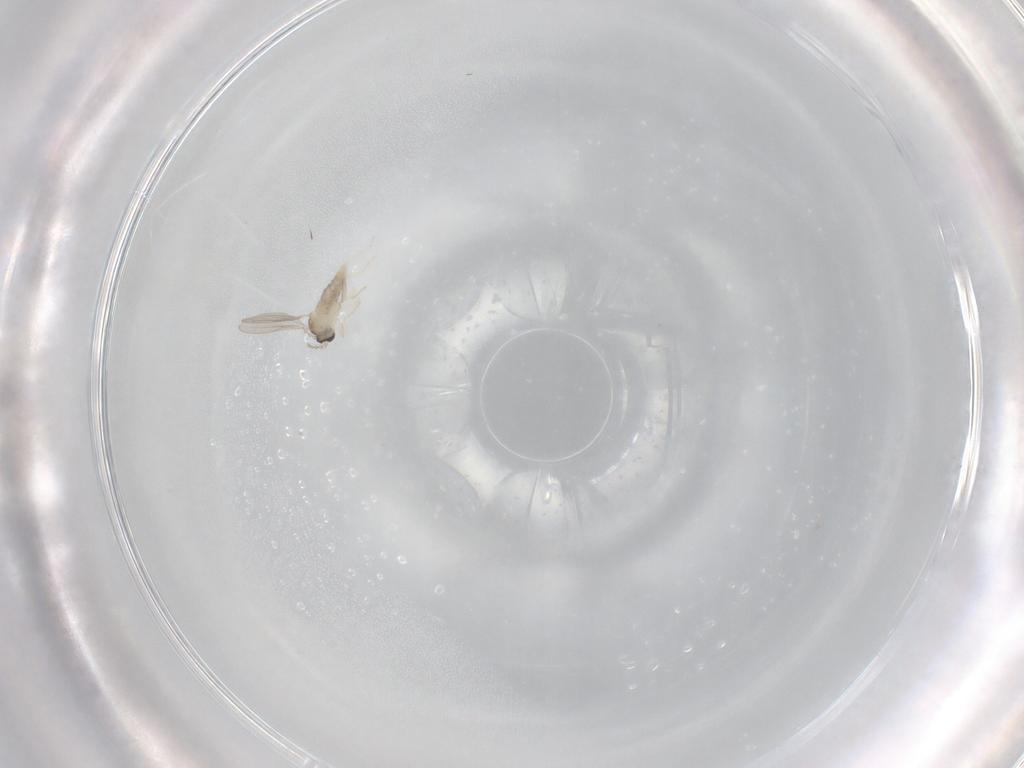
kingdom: Animalia
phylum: Arthropoda
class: Insecta
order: Diptera
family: Cecidomyiidae
